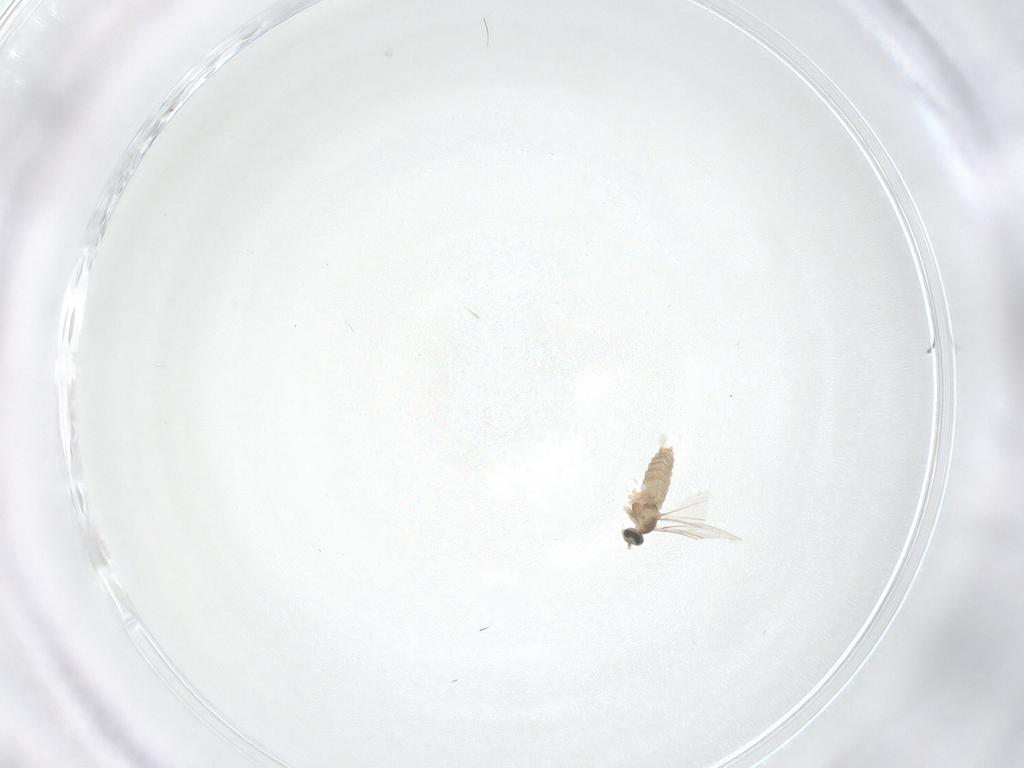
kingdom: Animalia
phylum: Arthropoda
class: Insecta
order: Diptera
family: Cecidomyiidae
